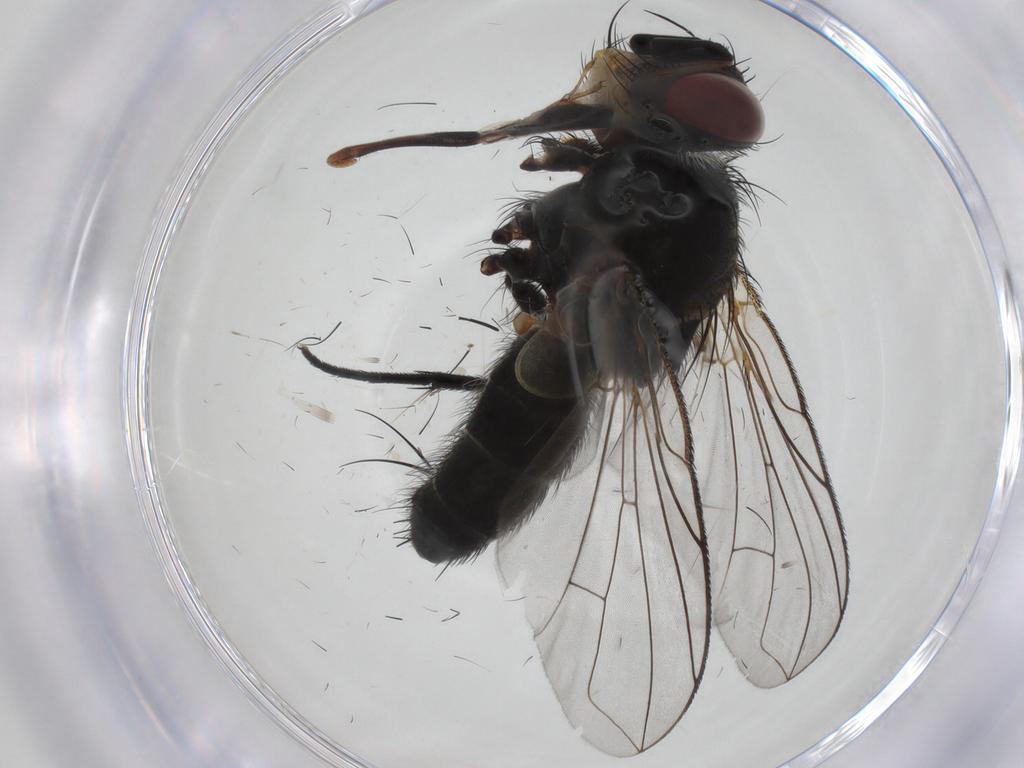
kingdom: Animalia
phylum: Arthropoda
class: Insecta
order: Diptera
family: Tachinidae
